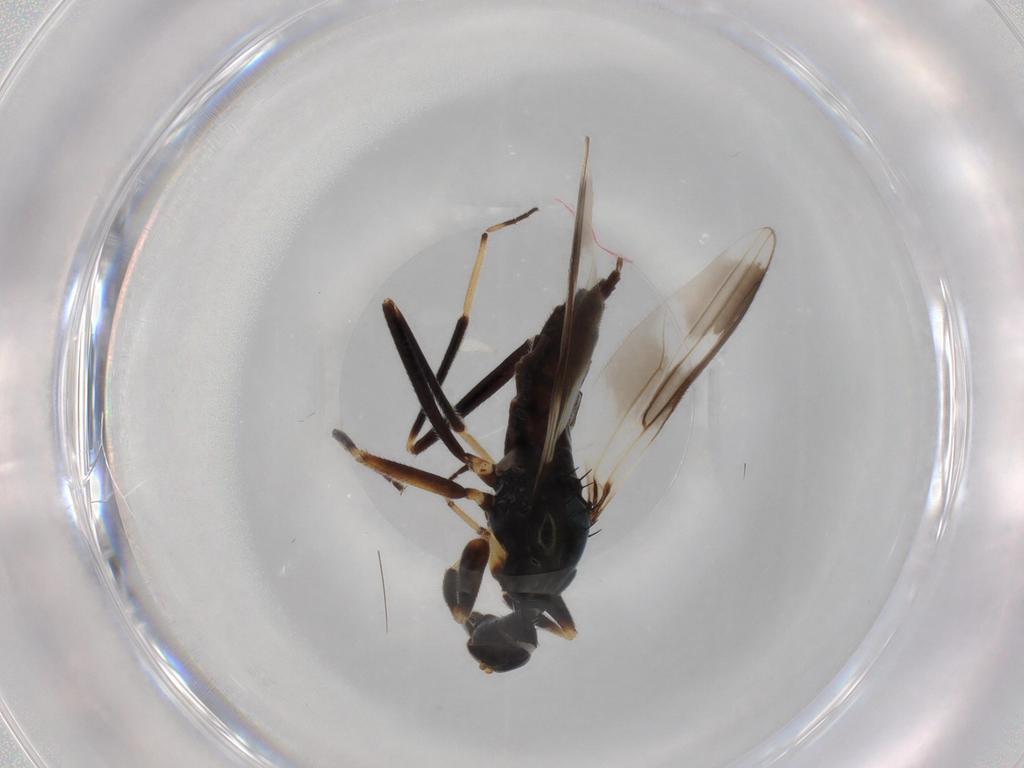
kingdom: Animalia
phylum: Arthropoda
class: Insecta
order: Diptera
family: Hybotidae
